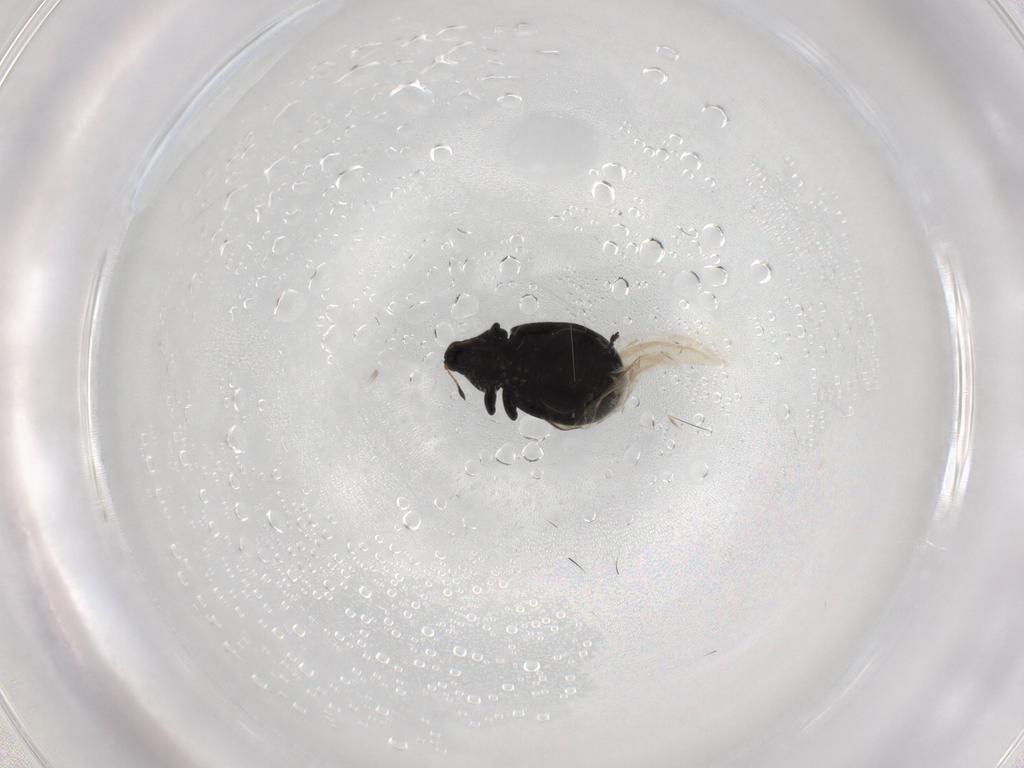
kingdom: Animalia
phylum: Arthropoda
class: Insecta
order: Coleoptera
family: Curculionidae
